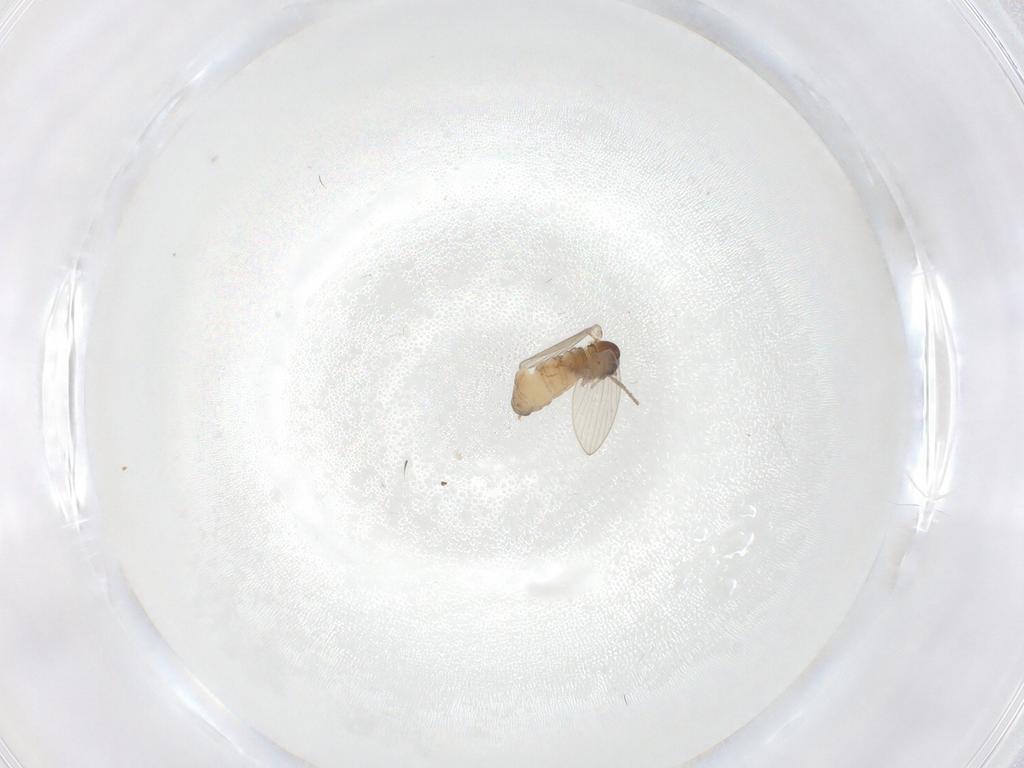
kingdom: Animalia
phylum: Arthropoda
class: Insecta
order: Diptera
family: Psychodidae
